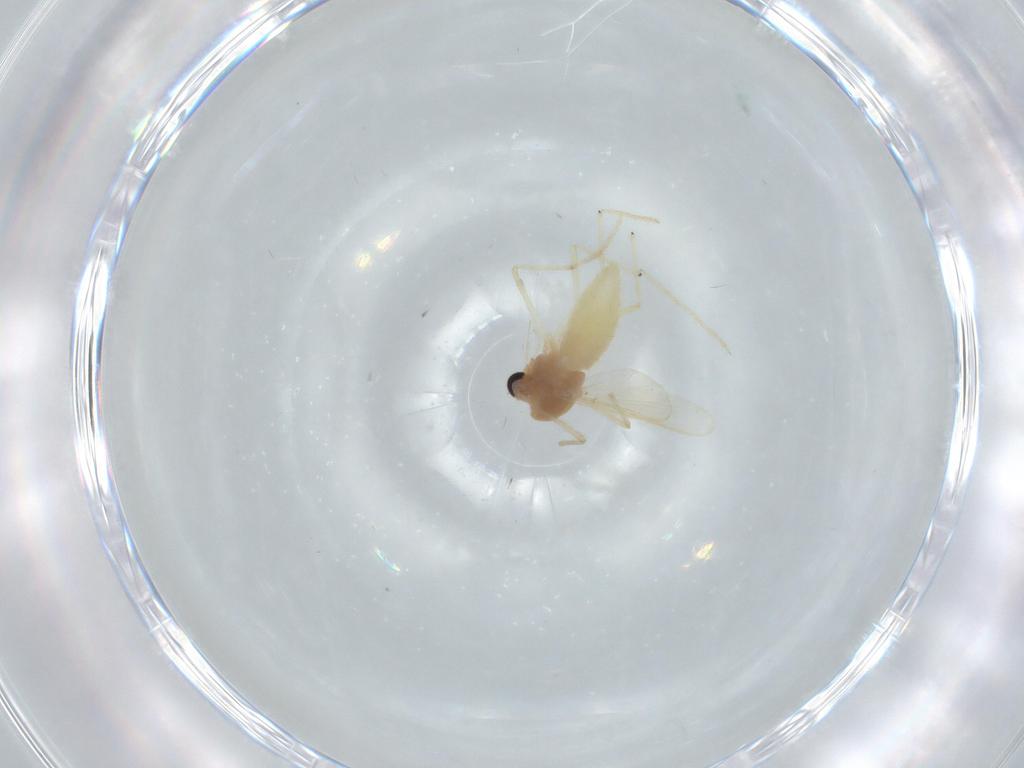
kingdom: Animalia
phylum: Arthropoda
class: Insecta
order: Diptera
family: Chironomidae
